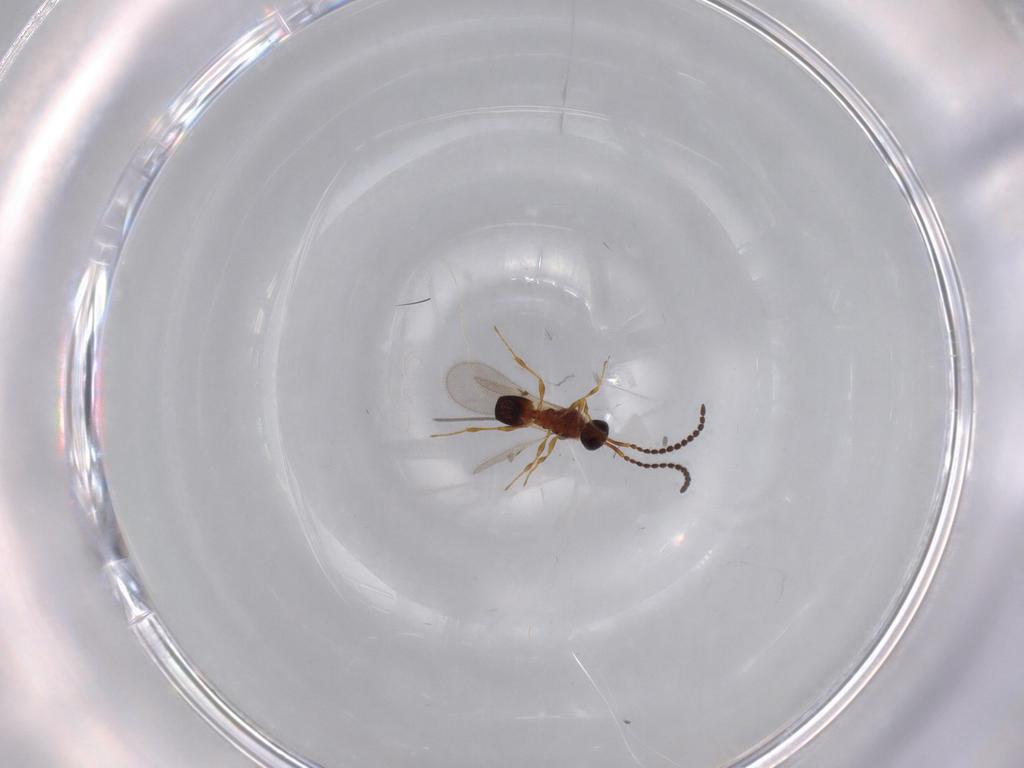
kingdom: Animalia
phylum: Arthropoda
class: Insecta
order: Hymenoptera
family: Diapriidae
